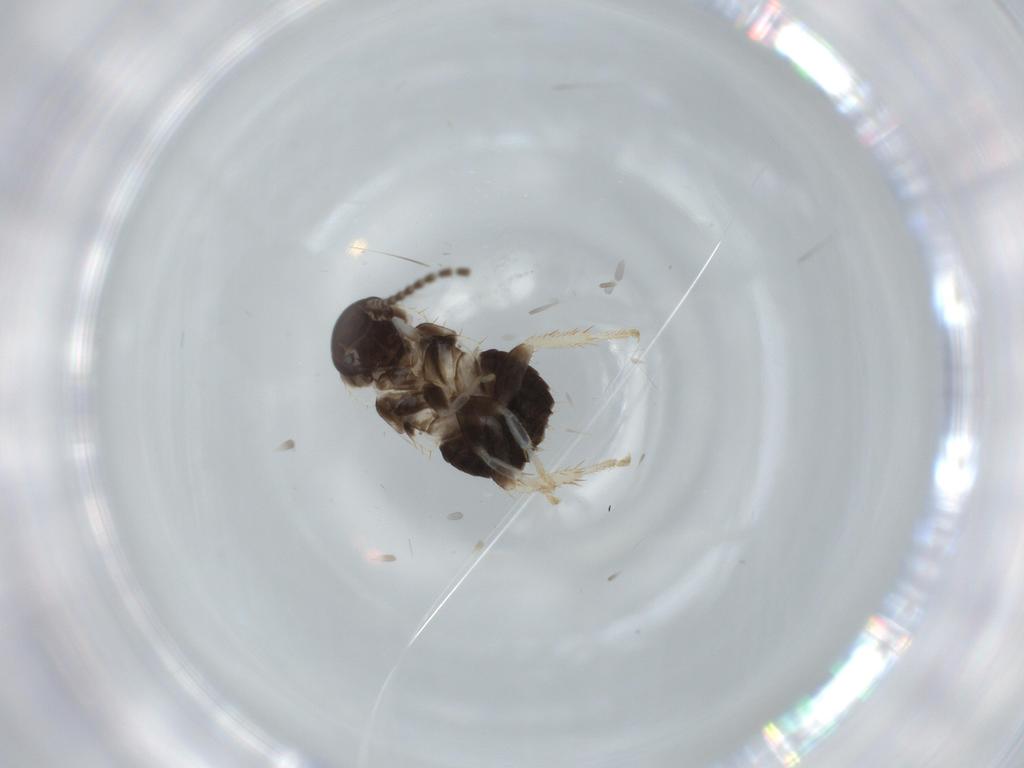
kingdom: Animalia
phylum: Arthropoda
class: Insecta
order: Blattodea
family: Ectobiidae
